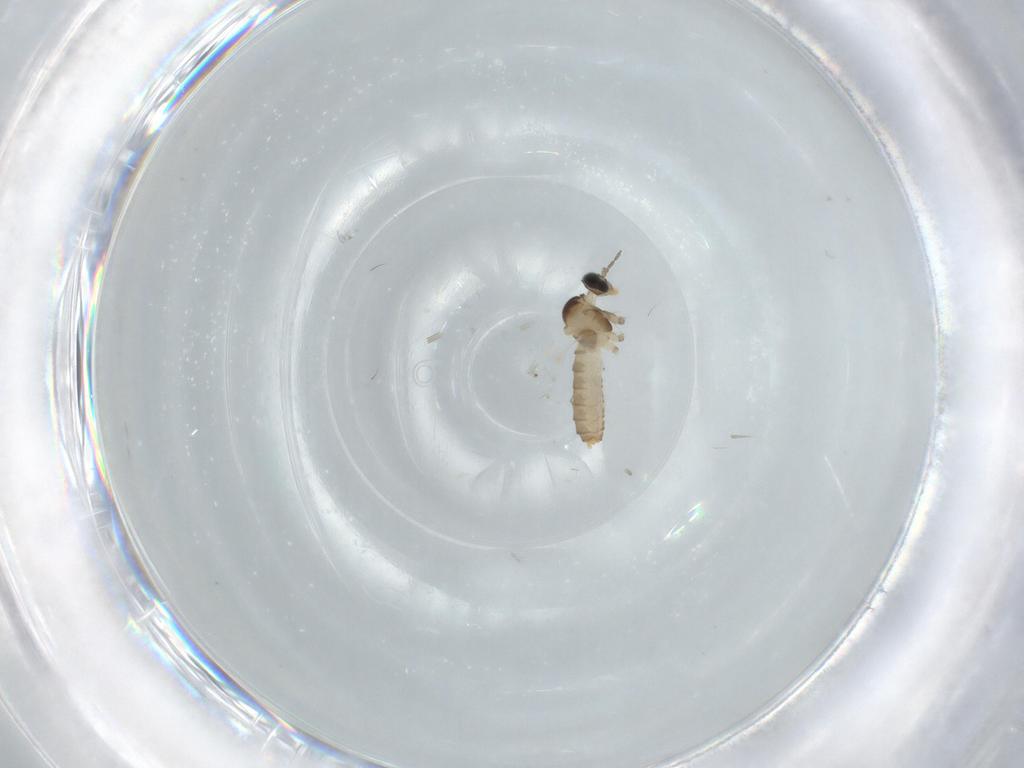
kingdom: Animalia
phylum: Arthropoda
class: Insecta
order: Diptera
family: Cecidomyiidae
